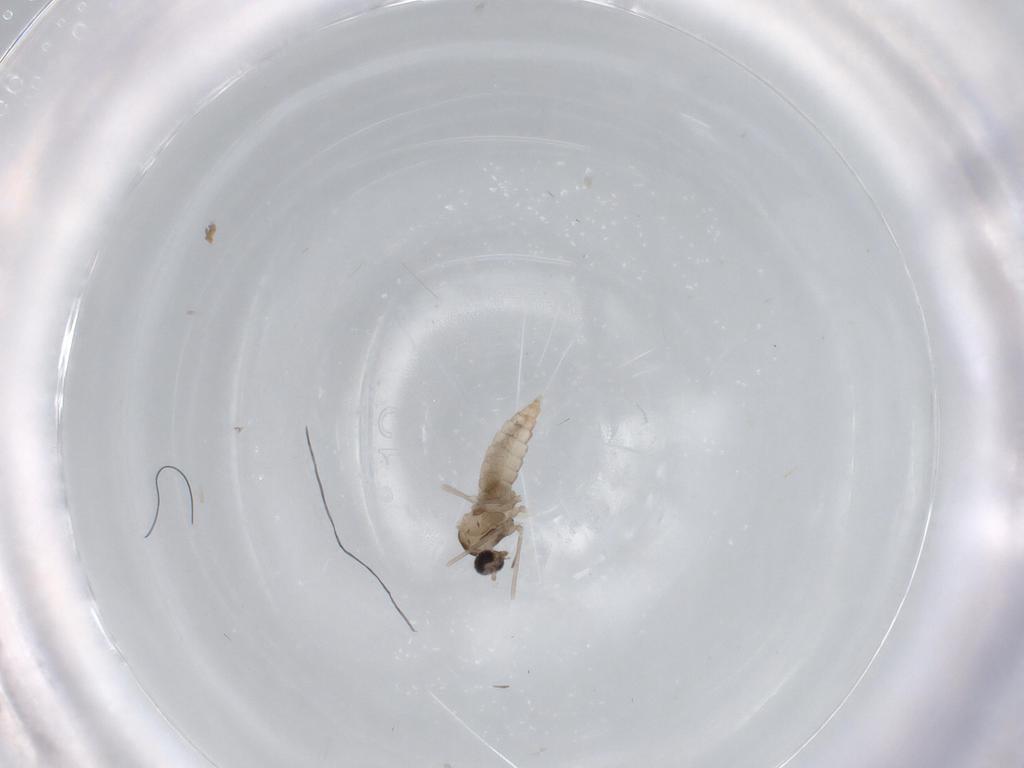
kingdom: Animalia
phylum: Arthropoda
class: Insecta
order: Diptera
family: Cecidomyiidae
